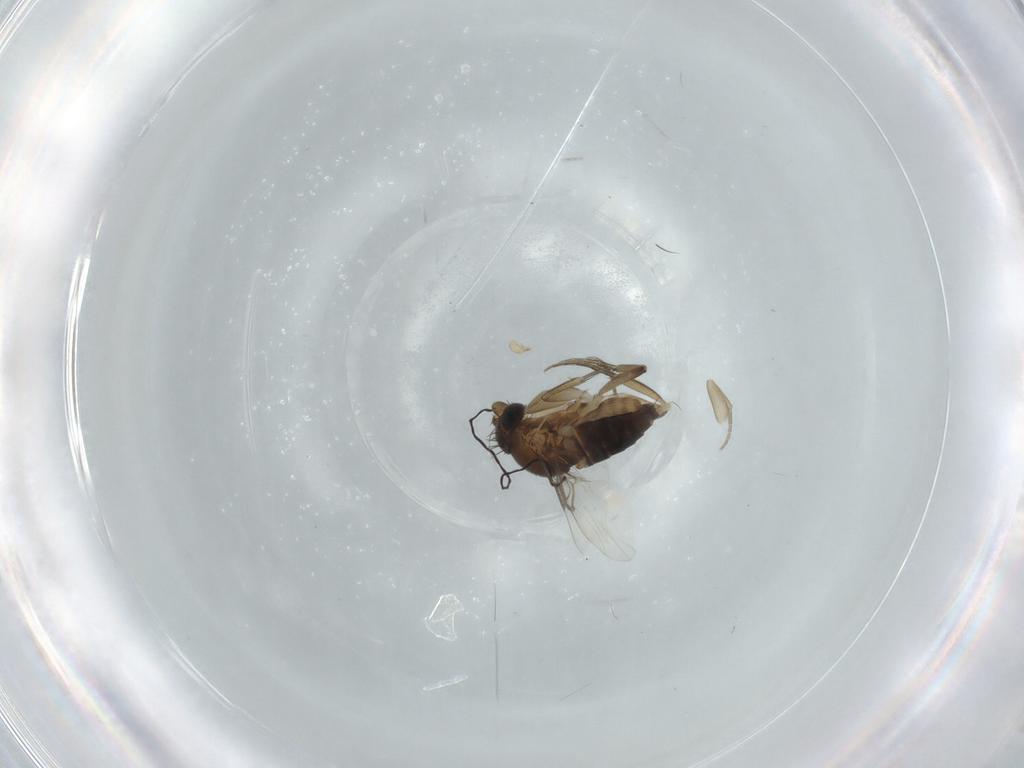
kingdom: Animalia
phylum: Arthropoda
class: Insecta
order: Diptera
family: Phoridae
